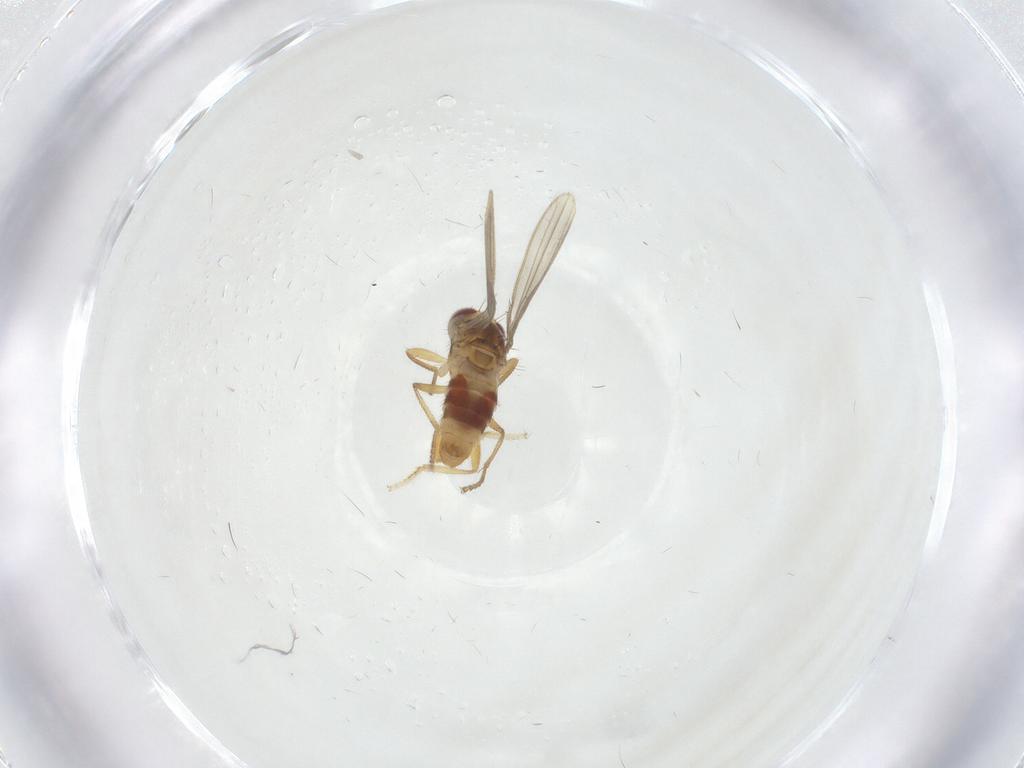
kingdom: Animalia
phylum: Arthropoda
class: Insecta
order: Diptera
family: Periscelididae
